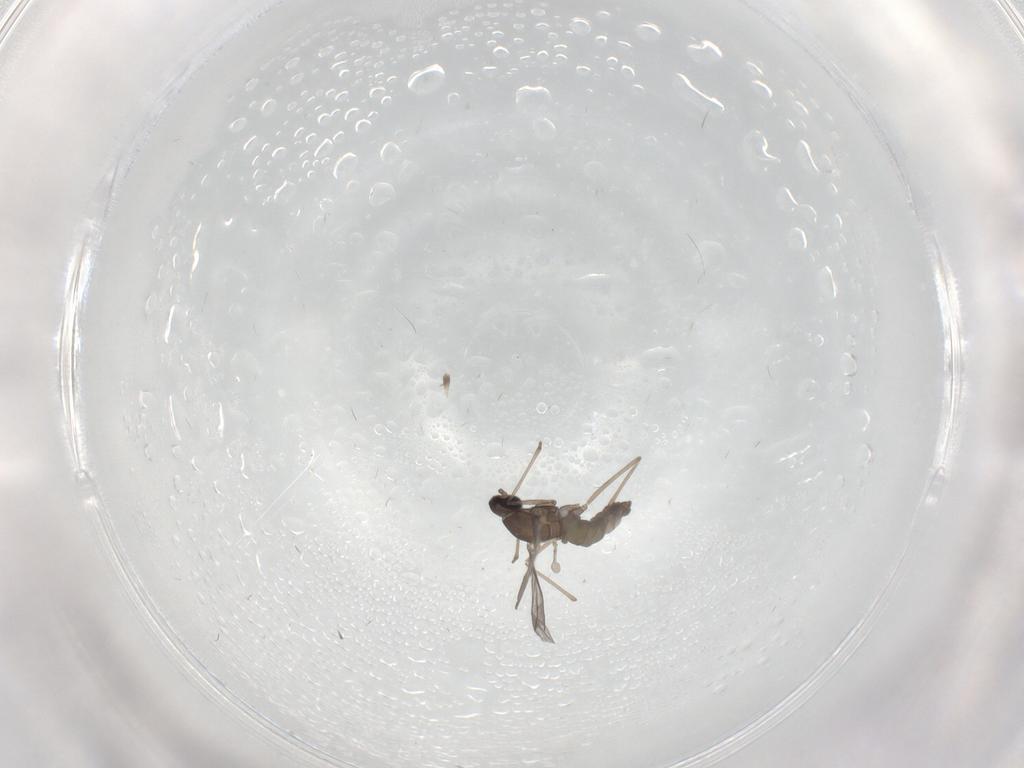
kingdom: Animalia
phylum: Arthropoda
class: Insecta
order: Diptera
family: Cecidomyiidae
